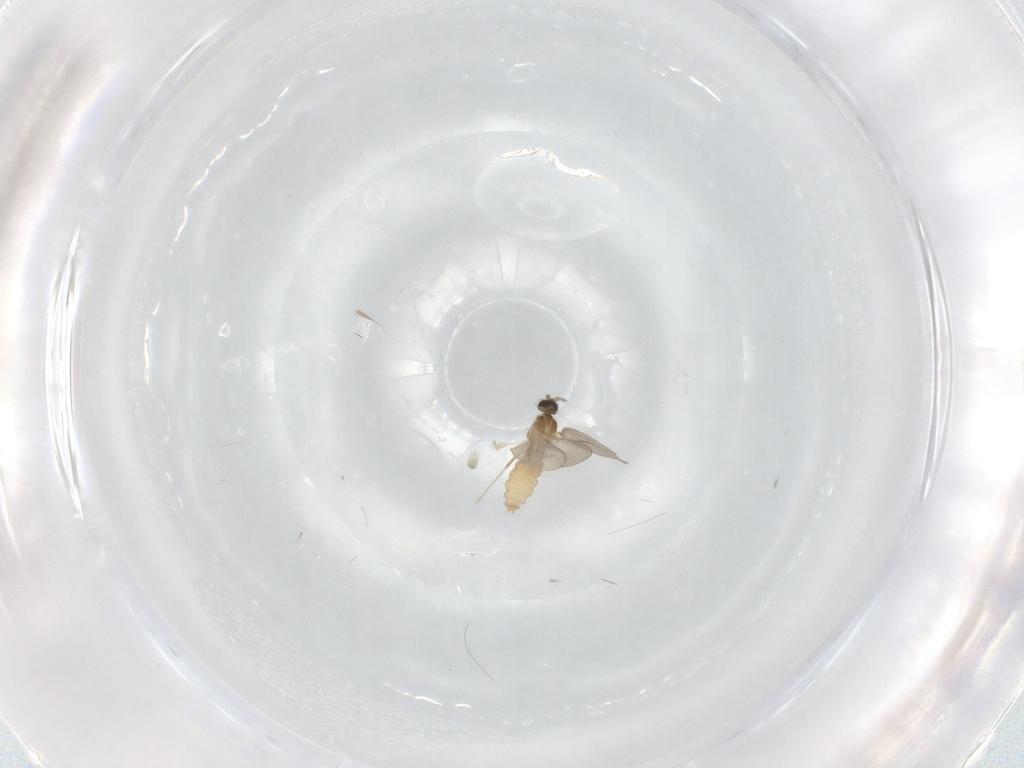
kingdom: Animalia
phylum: Arthropoda
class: Insecta
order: Diptera
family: Cecidomyiidae
